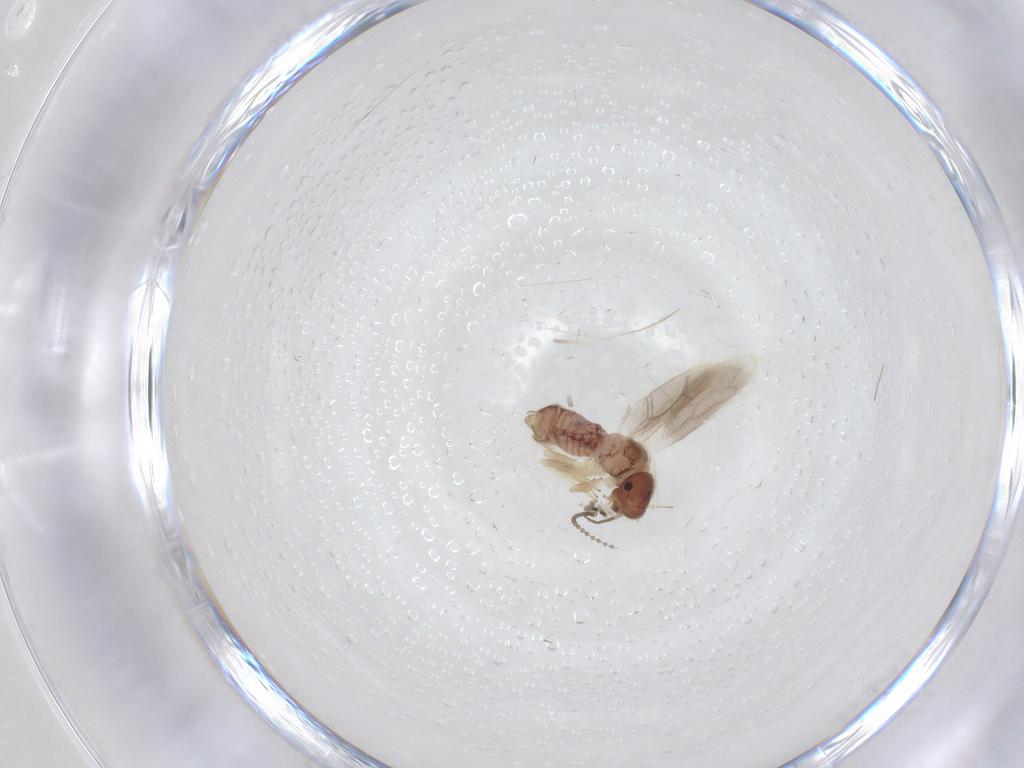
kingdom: Animalia
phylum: Arthropoda
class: Insecta
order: Psocodea
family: Archipsocidae
